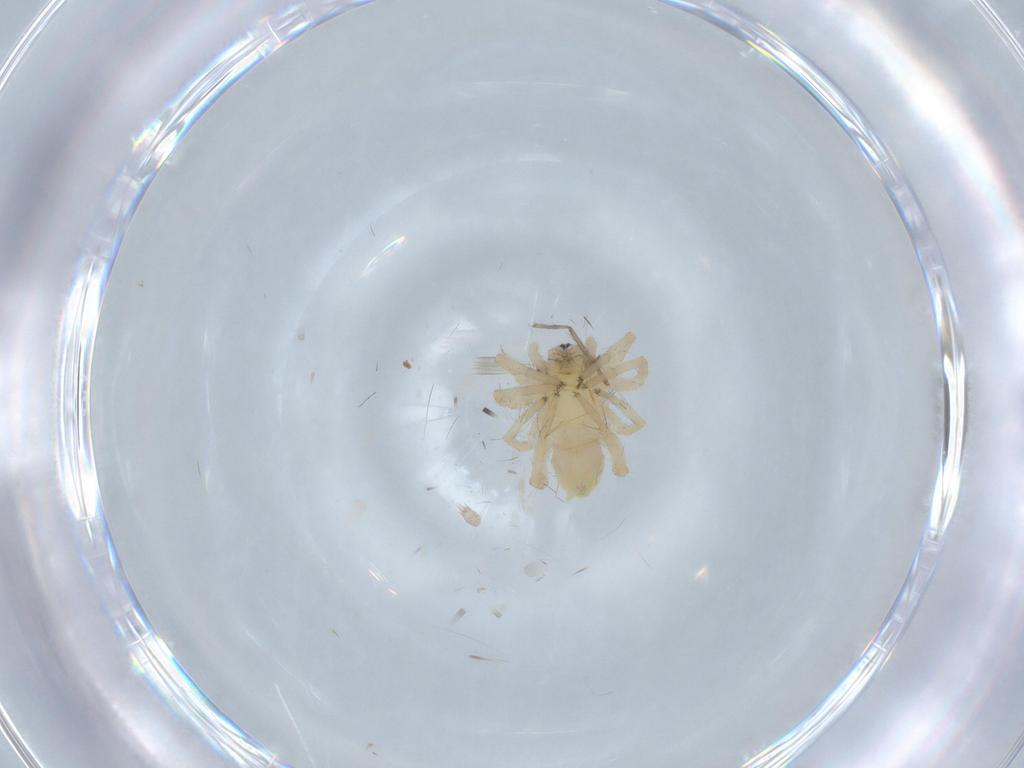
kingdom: Animalia
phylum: Arthropoda
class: Arachnida
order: Araneae
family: Anyphaenidae
